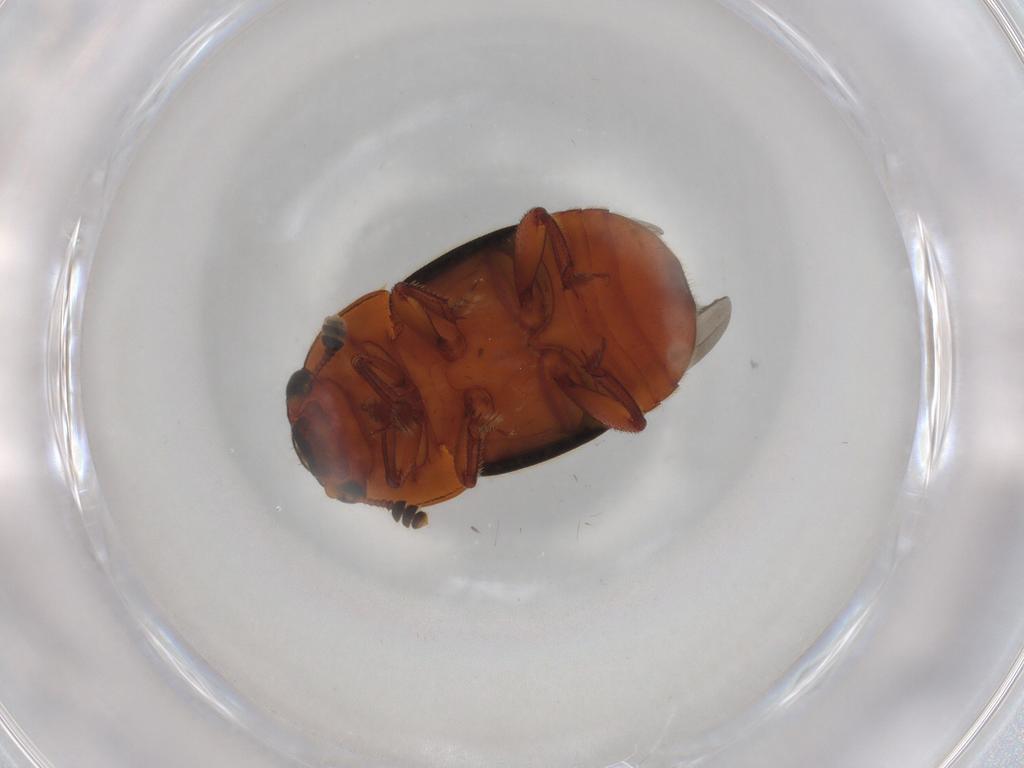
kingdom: Animalia
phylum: Arthropoda
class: Insecta
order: Coleoptera
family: Nitidulidae
